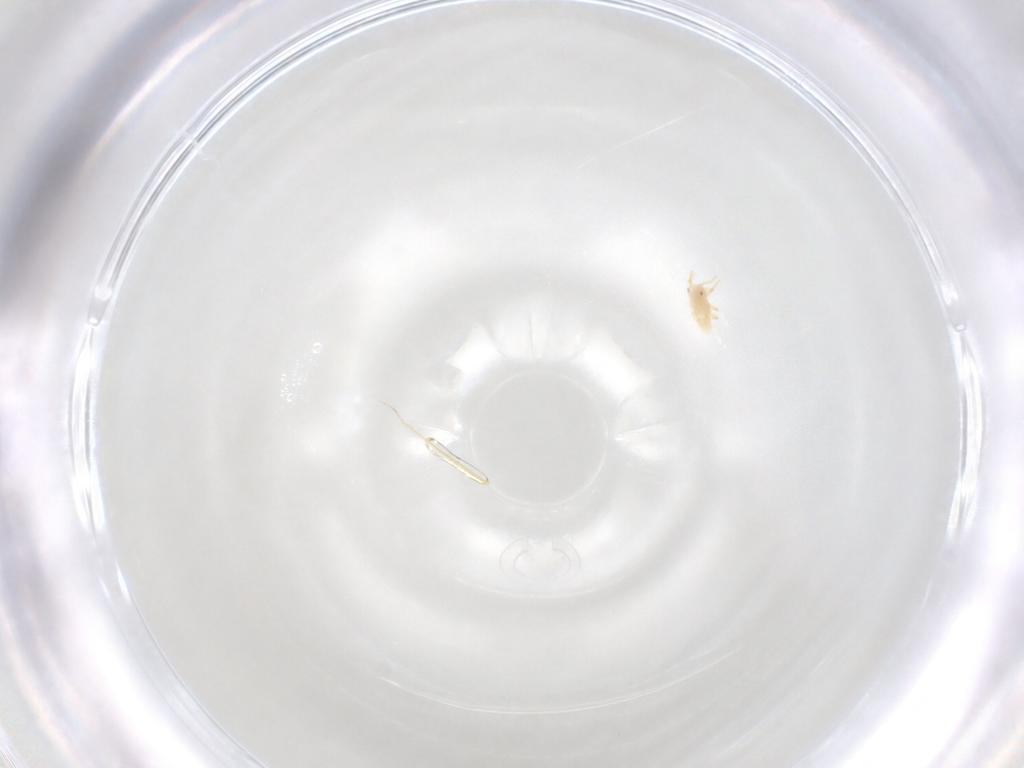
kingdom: Animalia
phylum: Arthropoda
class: Insecta
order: Hemiptera
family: Cicadellidae
